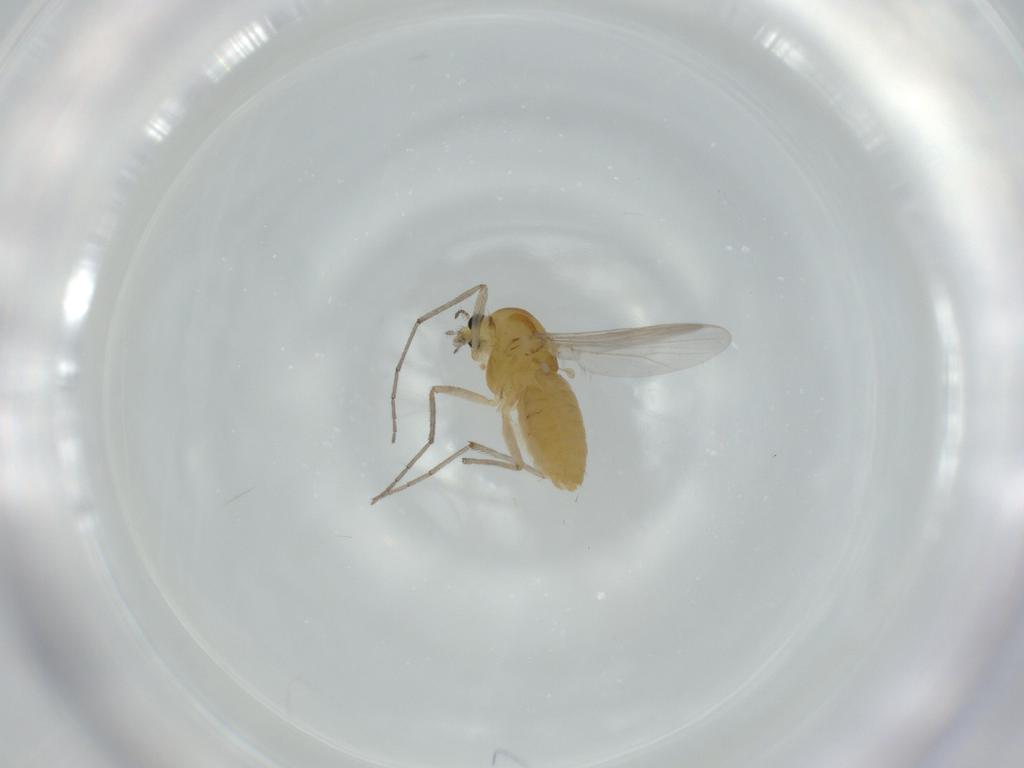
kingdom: Animalia
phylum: Arthropoda
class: Insecta
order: Diptera
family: Chironomidae
